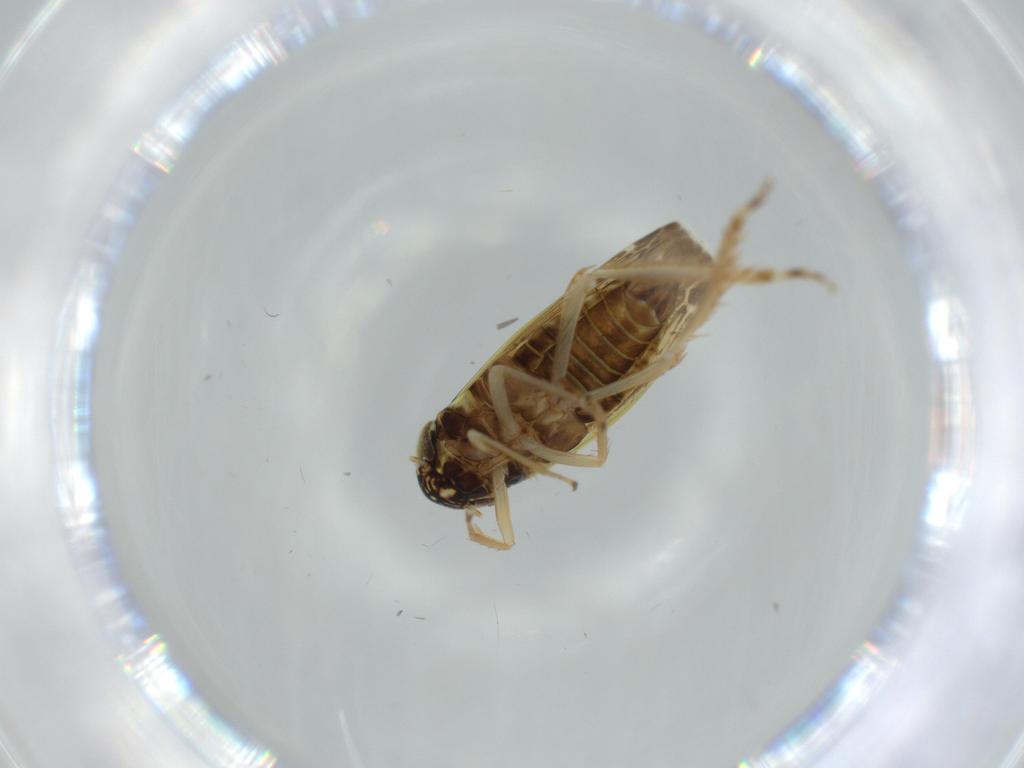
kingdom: Animalia
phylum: Arthropoda
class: Insecta
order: Hemiptera
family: Cicadellidae
